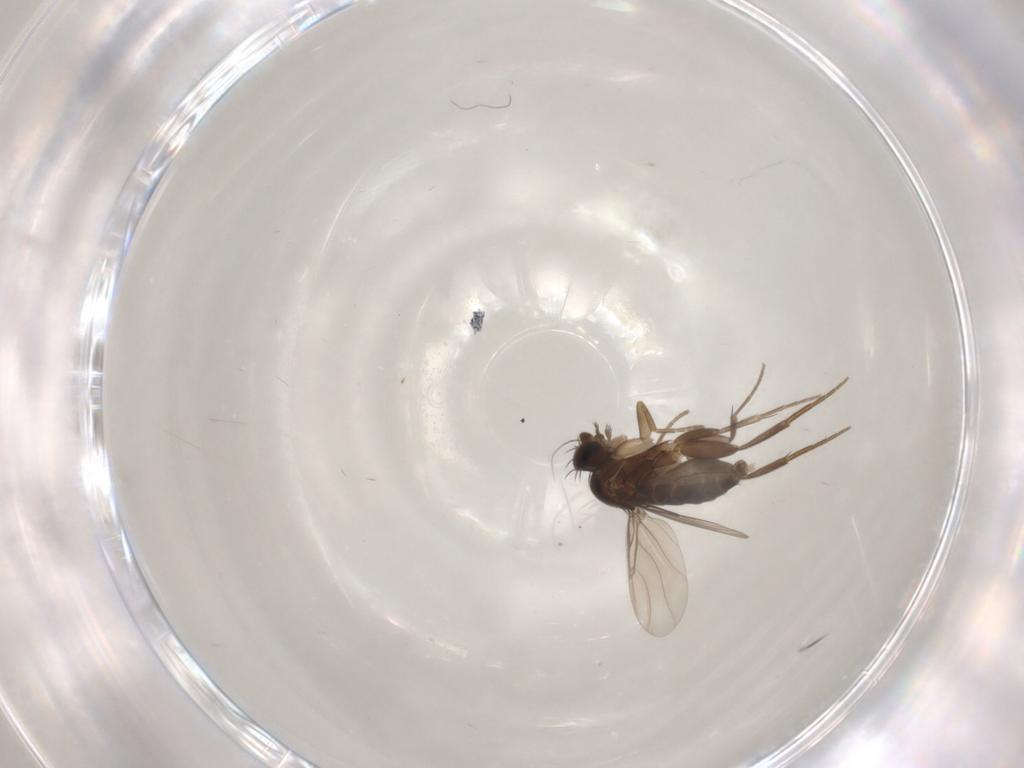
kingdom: Animalia
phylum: Arthropoda
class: Insecta
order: Diptera
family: Phoridae
